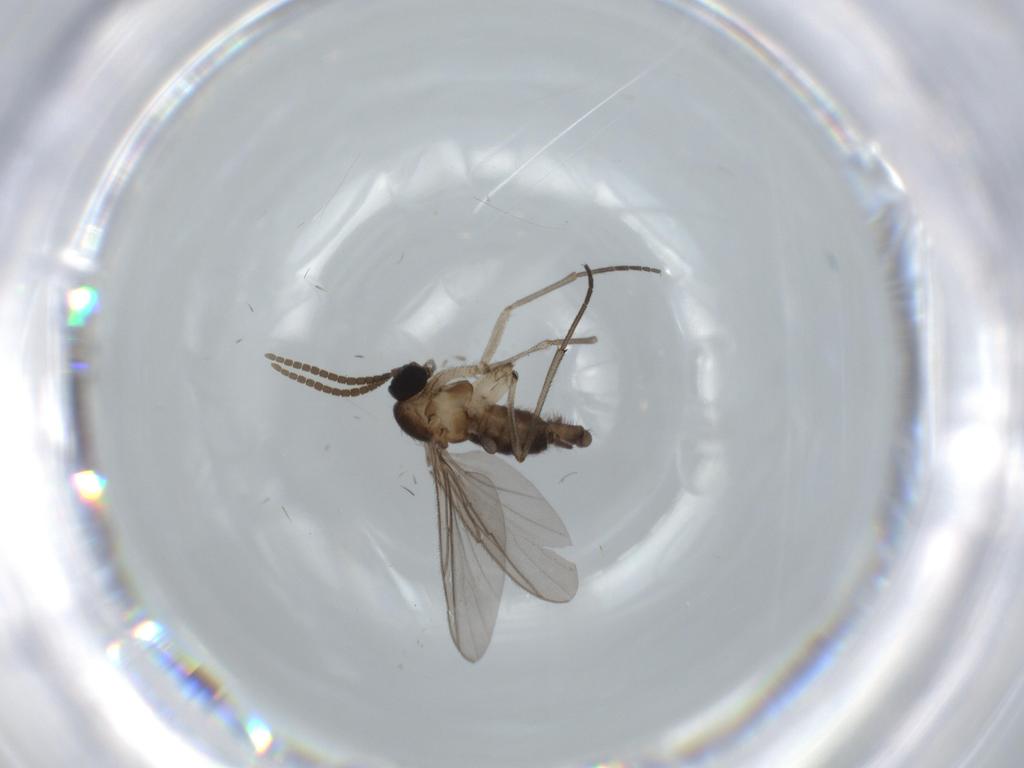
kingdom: Animalia
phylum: Arthropoda
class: Insecta
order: Diptera
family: Sciaridae
